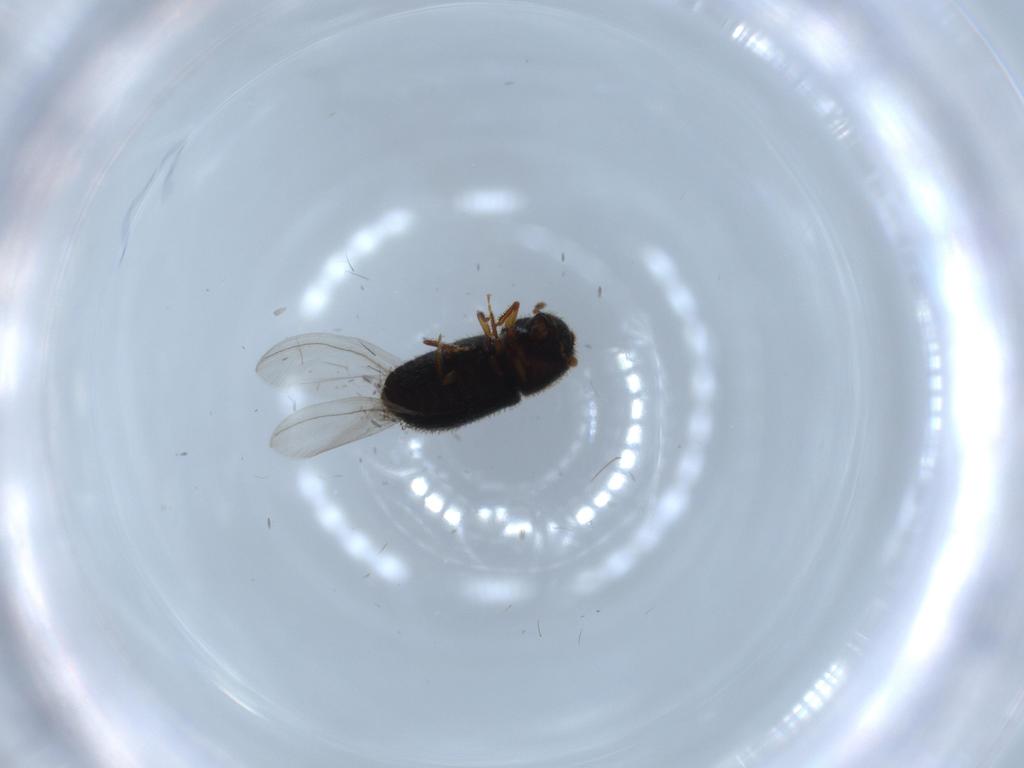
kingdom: Animalia
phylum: Arthropoda
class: Insecta
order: Coleoptera
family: Curculionidae
